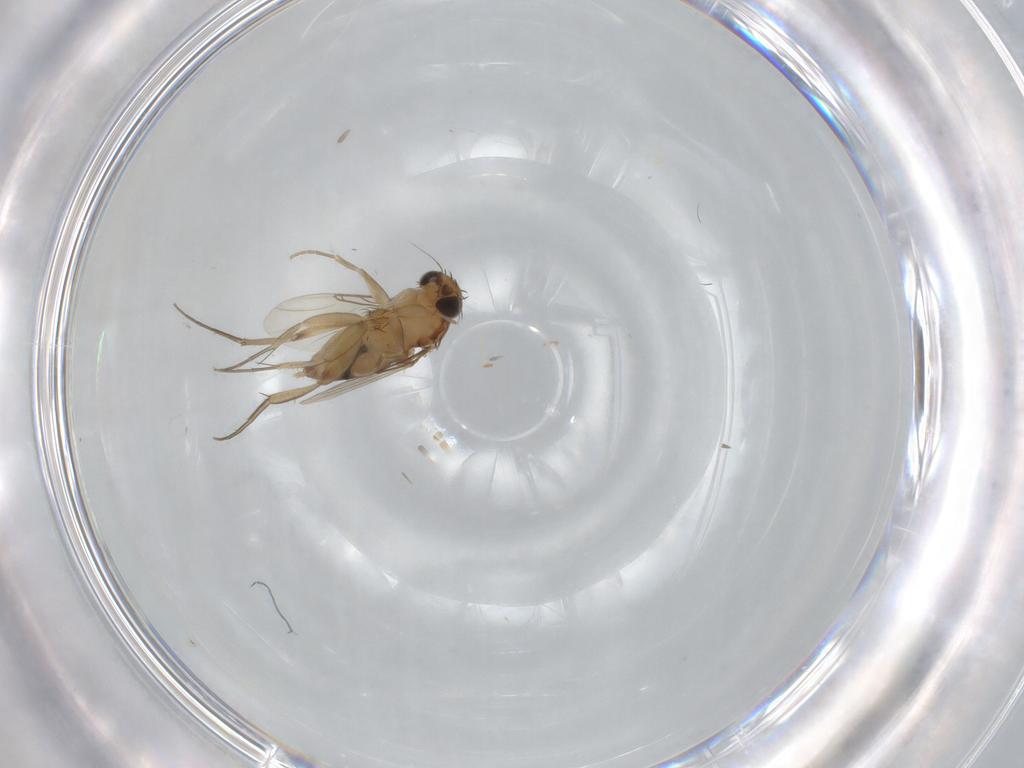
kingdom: Animalia
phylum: Arthropoda
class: Insecta
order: Diptera
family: Phoridae
